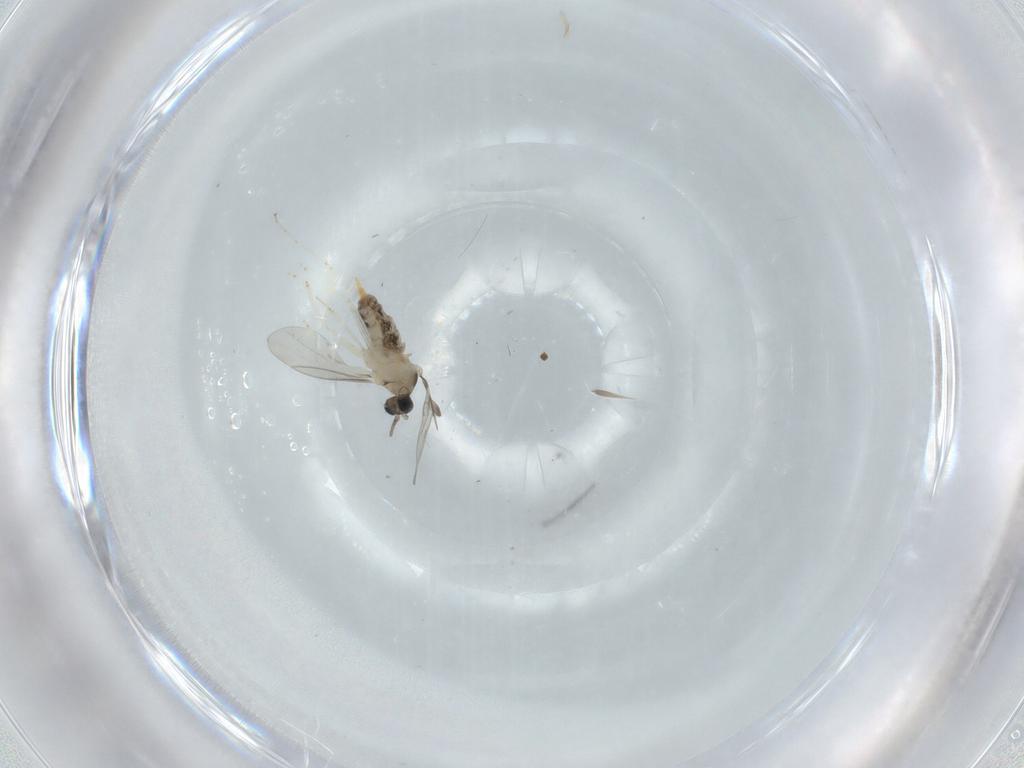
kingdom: Animalia
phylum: Arthropoda
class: Insecta
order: Diptera
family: Cecidomyiidae
